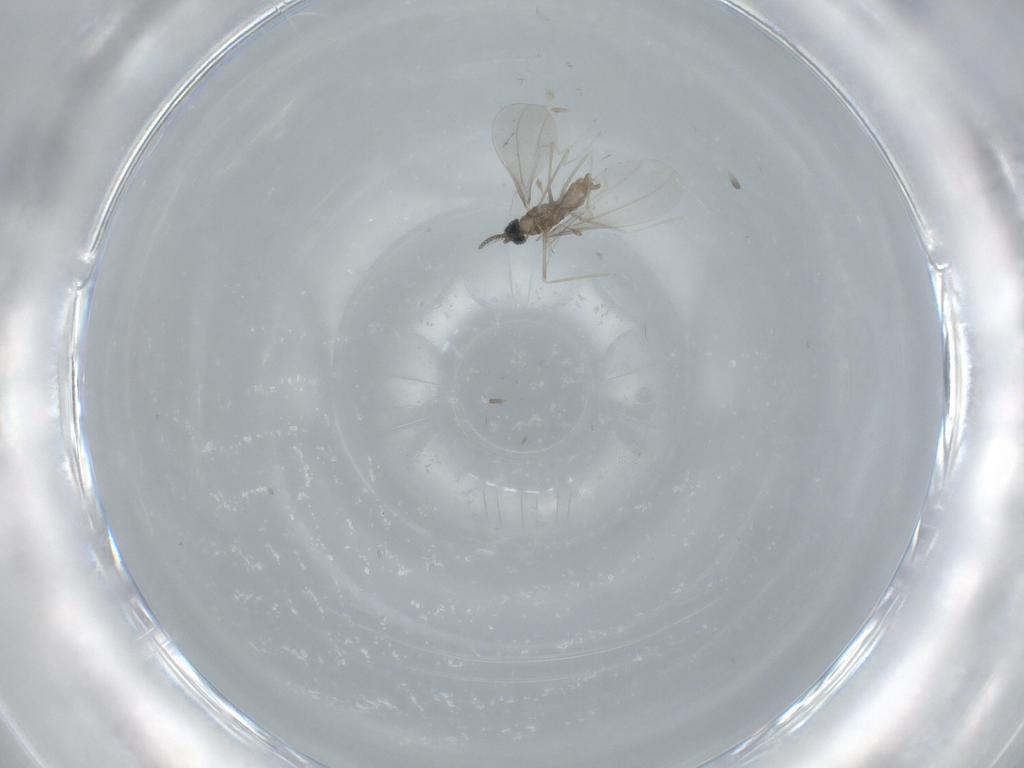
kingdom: Animalia
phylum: Arthropoda
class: Insecta
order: Diptera
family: Cecidomyiidae
